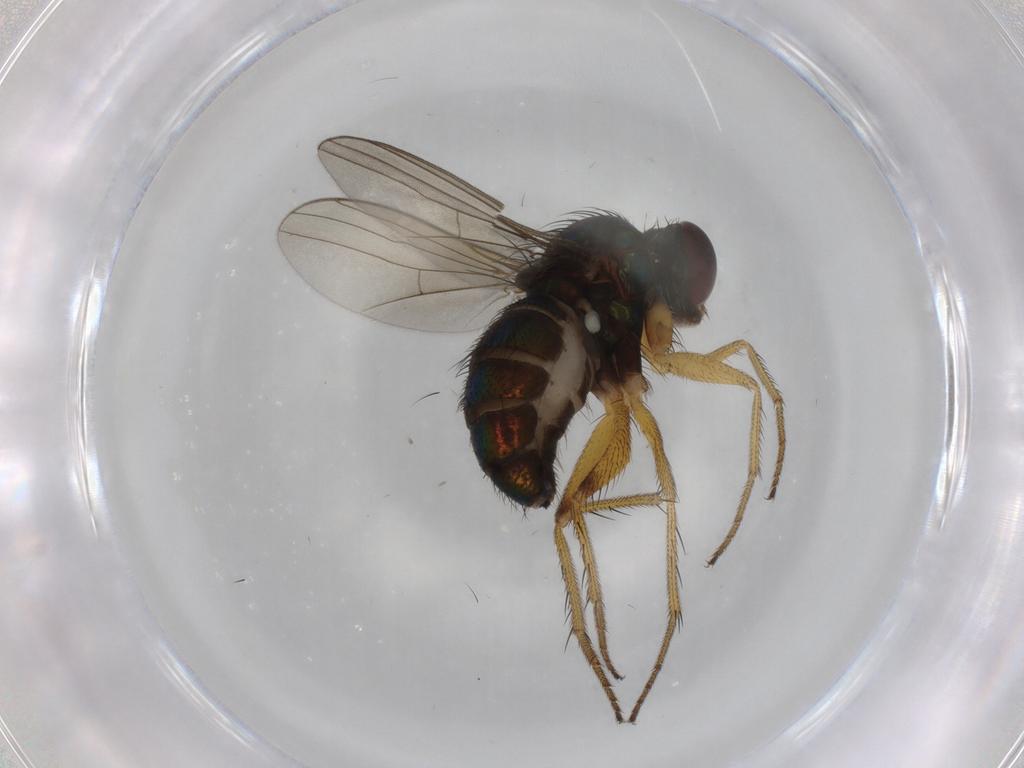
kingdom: Animalia
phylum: Arthropoda
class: Insecta
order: Diptera
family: Dolichopodidae
